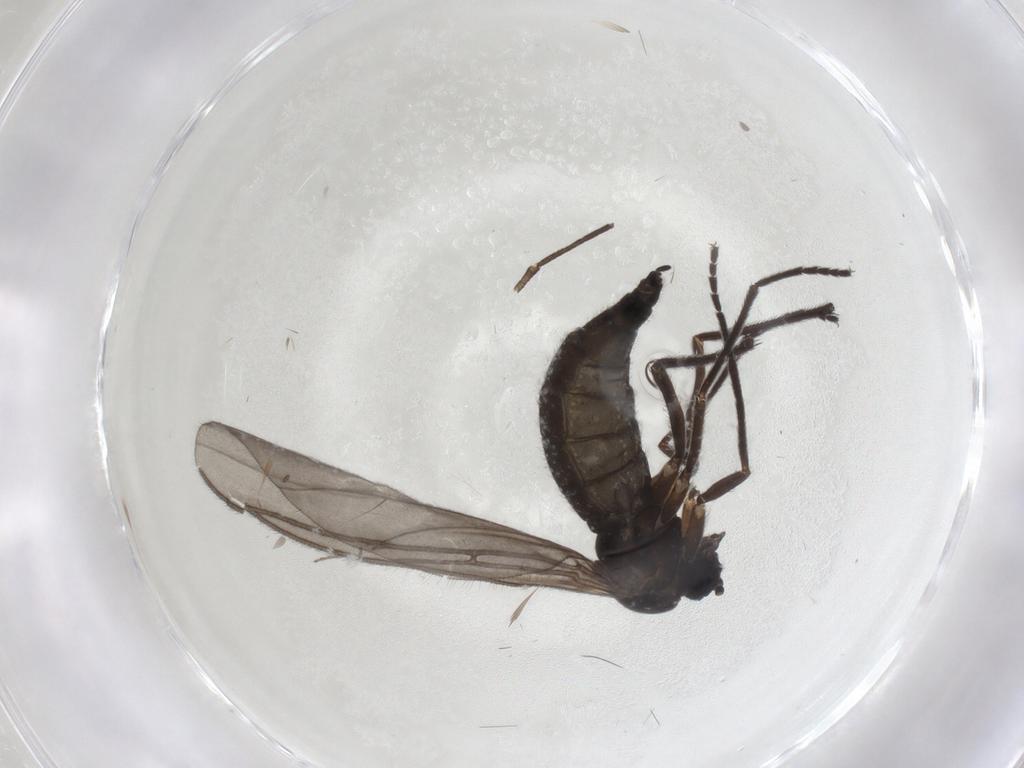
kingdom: Animalia
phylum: Arthropoda
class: Insecta
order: Diptera
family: Sciaridae
